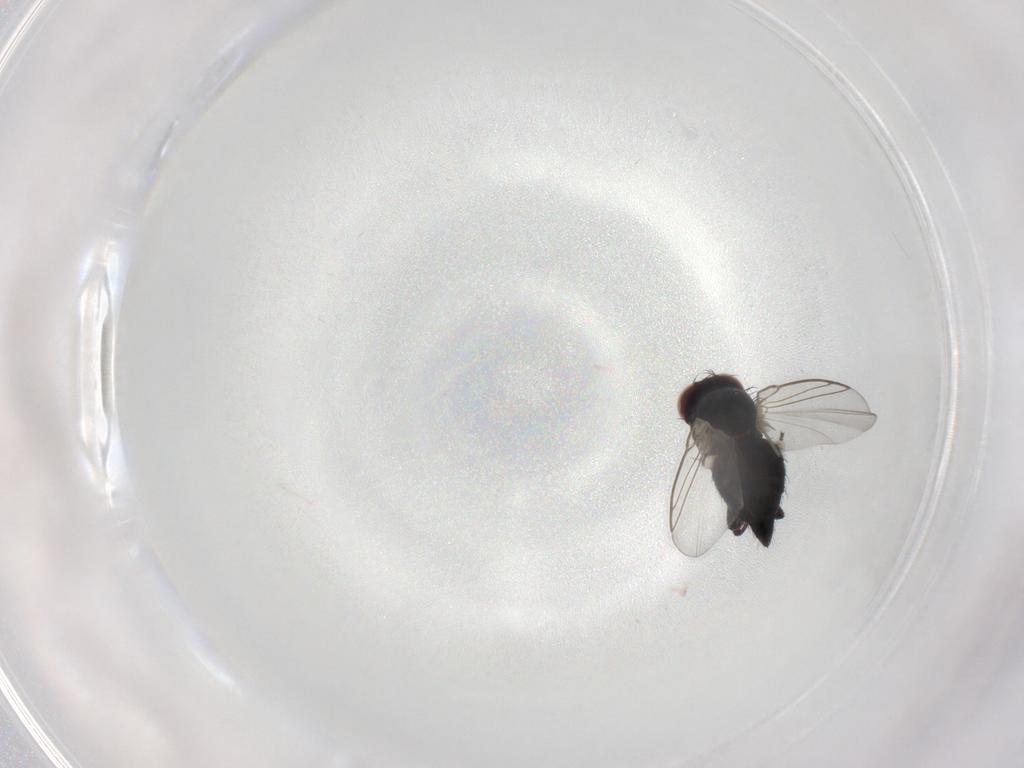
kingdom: Animalia
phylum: Arthropoda
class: Insecta
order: Diptera
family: Agromyzidae
